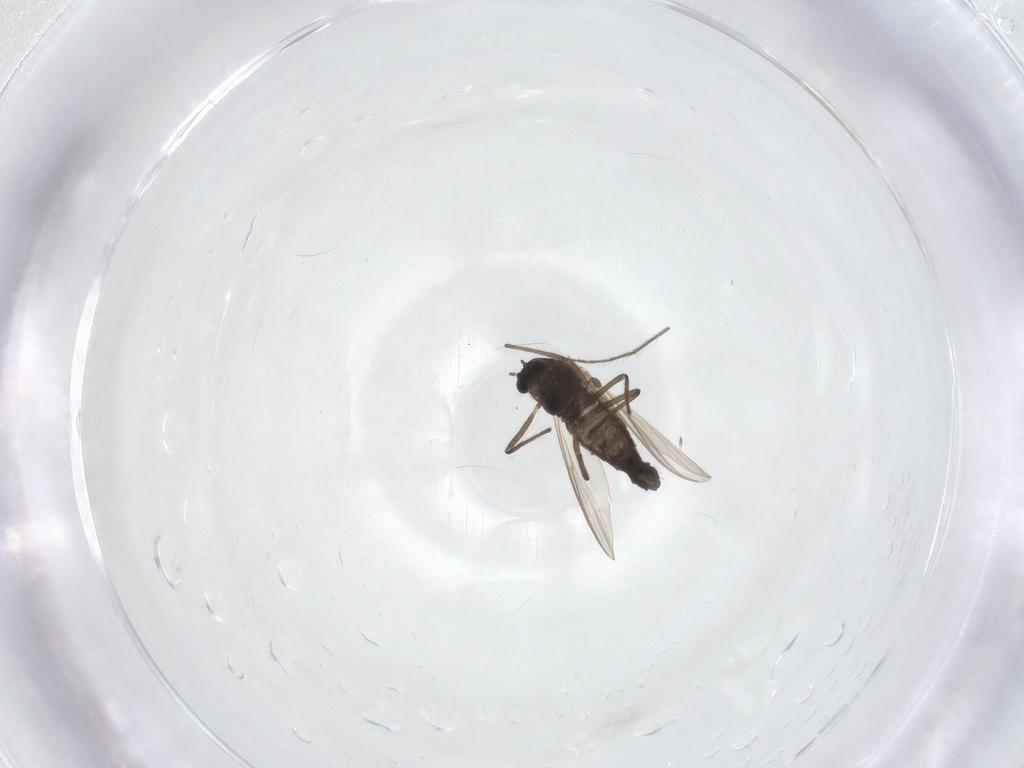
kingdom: Animalia
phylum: Arthropoda
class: Insecta
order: Diptera
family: Chironomidae
